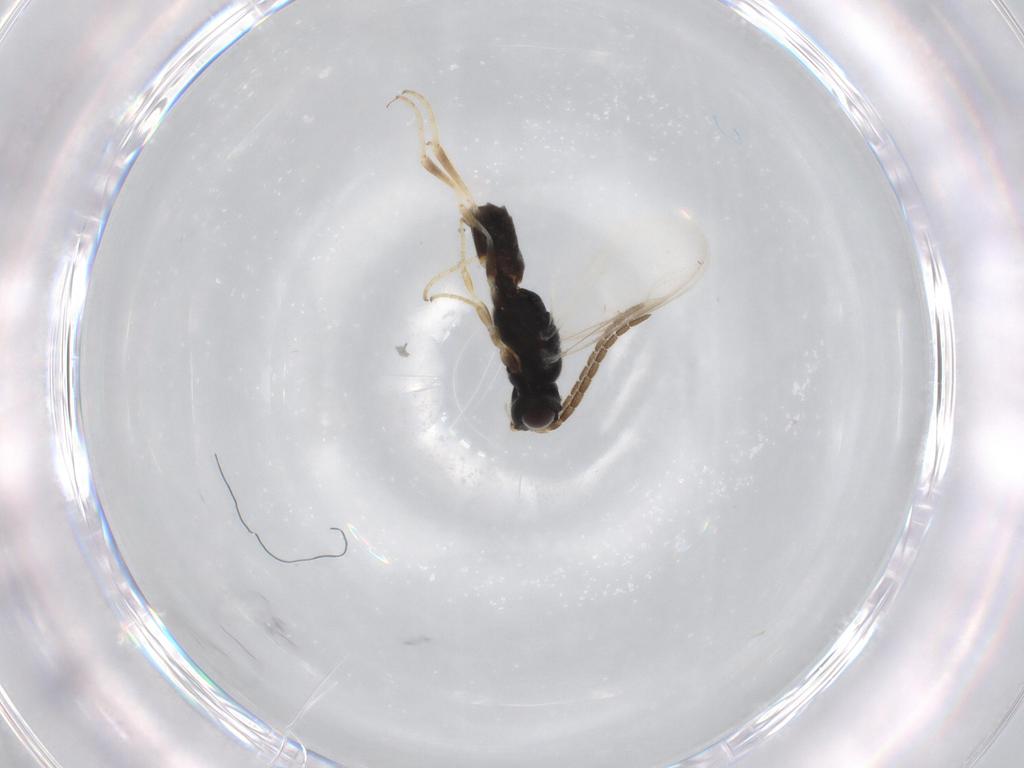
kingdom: Animalia
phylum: Arthropoda
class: Insecta
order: Hymenoptera
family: Dryinidae
